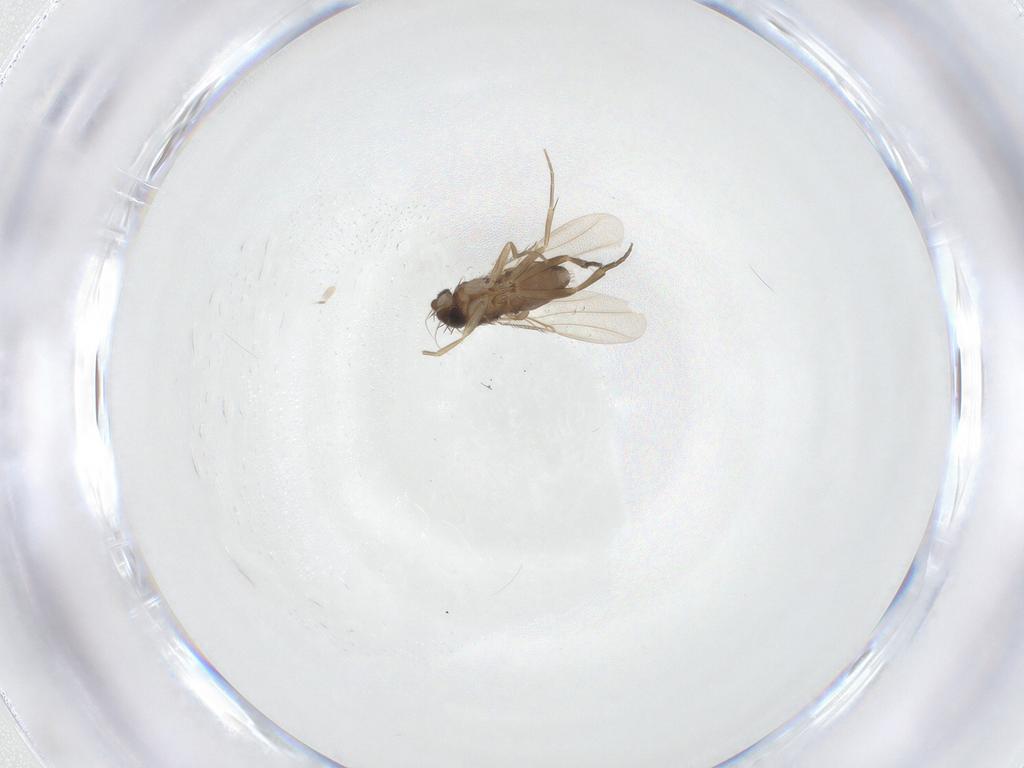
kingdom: Animalia
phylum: Arthropoda
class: Insecta
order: Diptera
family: Phoridae
